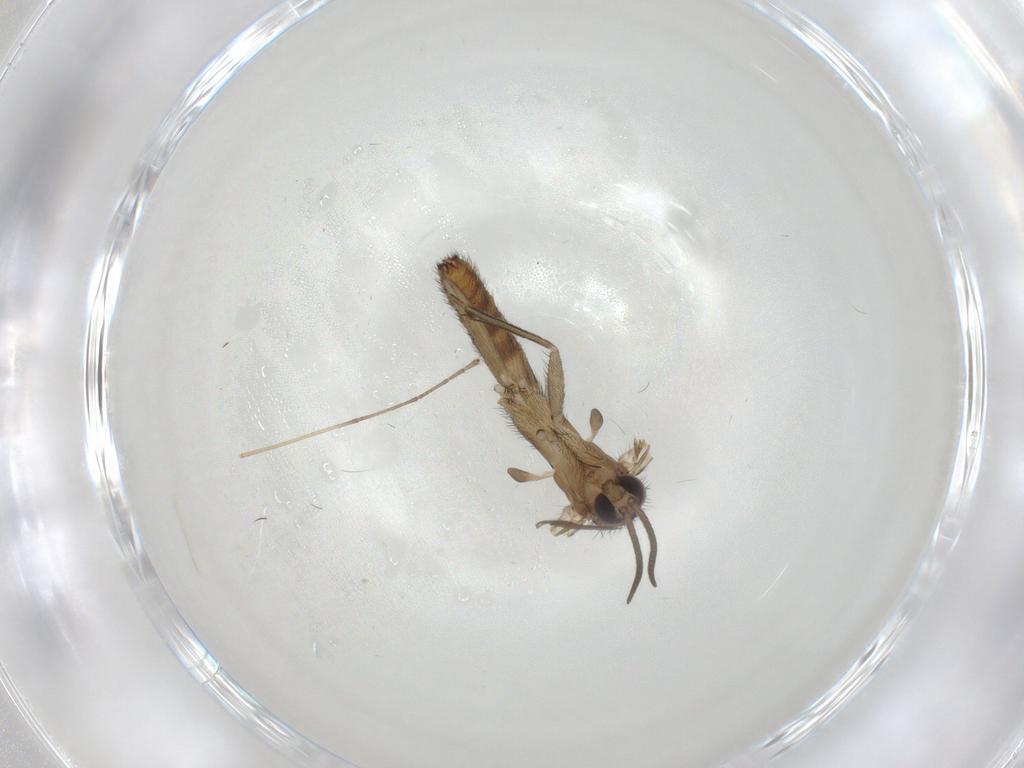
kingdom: Animalia
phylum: Arthropoda
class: Insecta
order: Diptera
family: Keroplatidae
